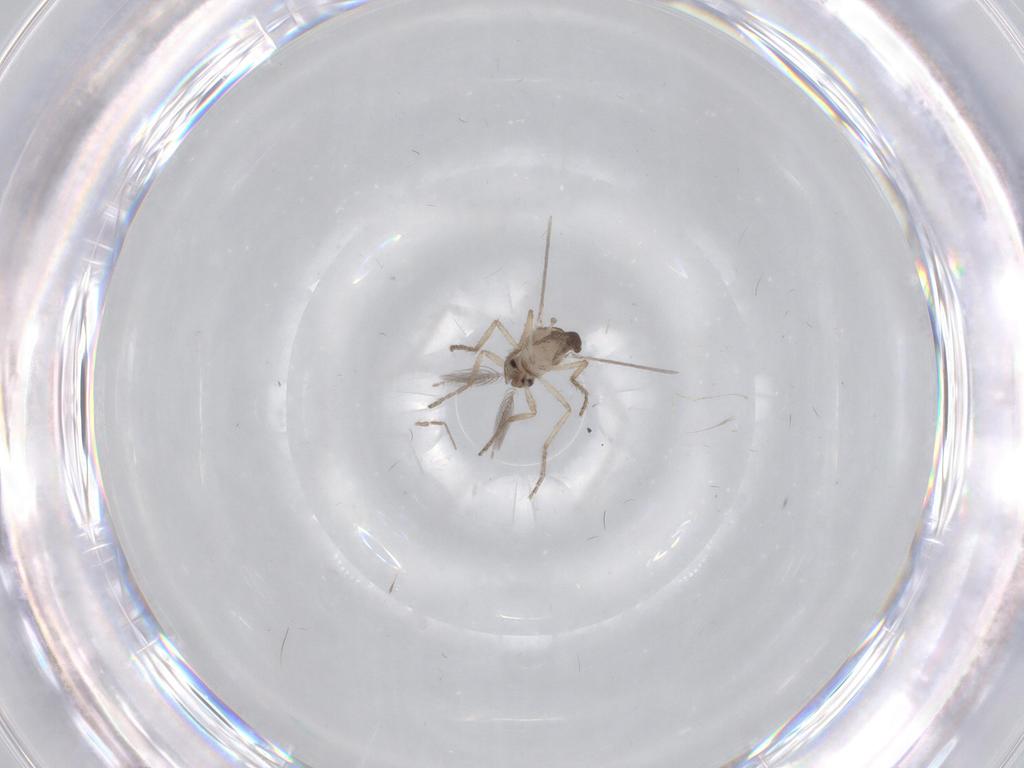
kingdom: Animalia
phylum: Arthropoda
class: Insecta
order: Diptera
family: Ceratopogonidae
